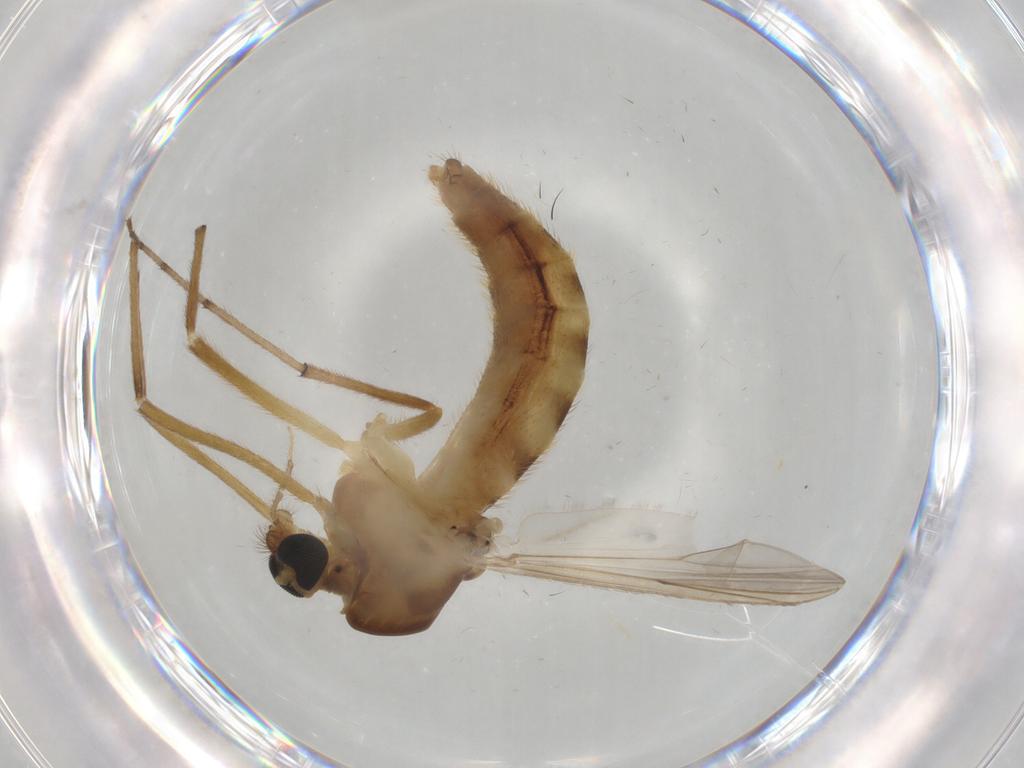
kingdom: Animalia
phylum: Arthropoda
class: Insecta
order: Diptera
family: Chironomidae
